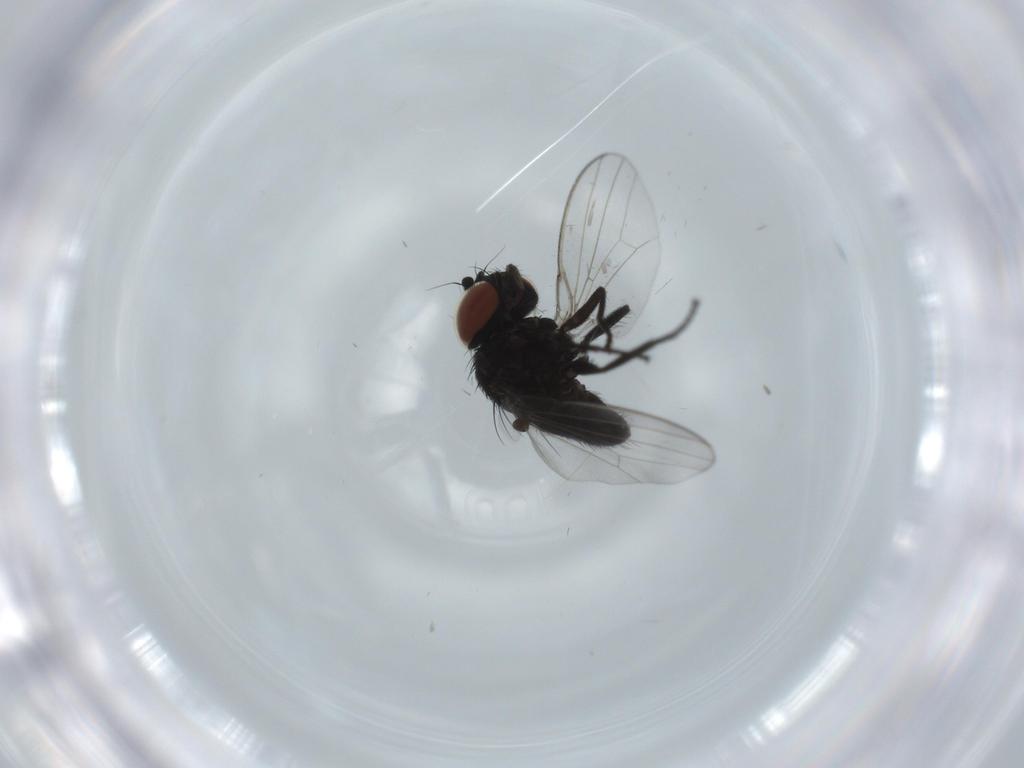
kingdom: Animalia
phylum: Arthropoda
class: Insecta
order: Diptera
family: Milichiidae
